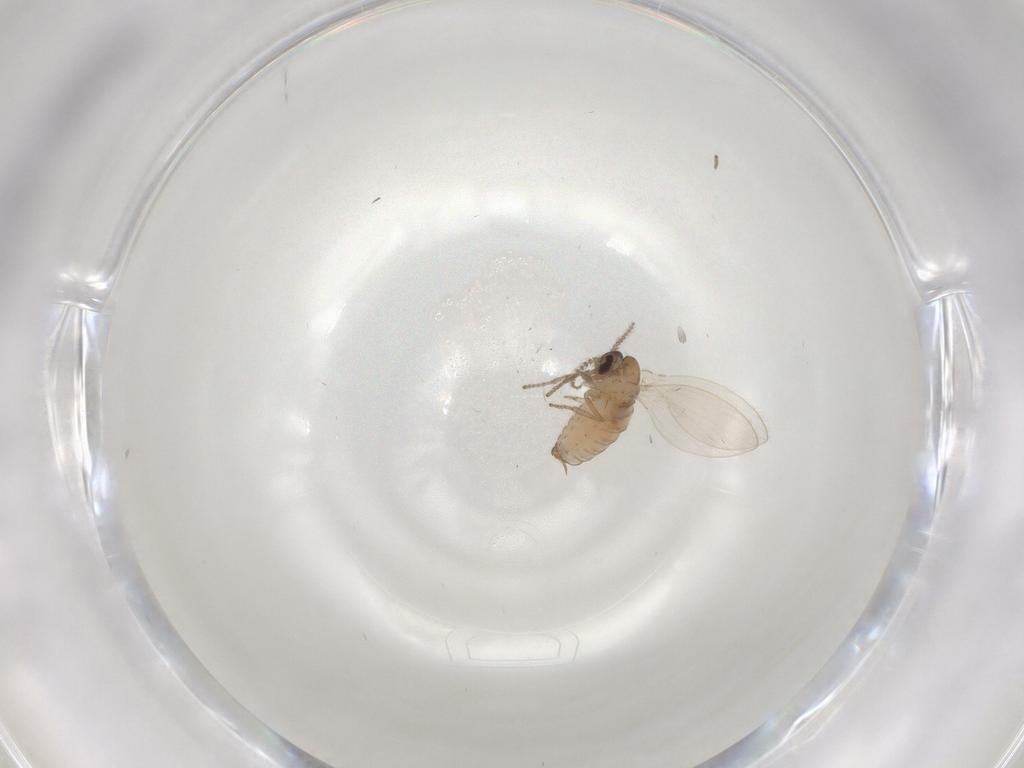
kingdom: Animalia
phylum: Arthropoda
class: Insecta
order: Diptera
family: Psychodidae
